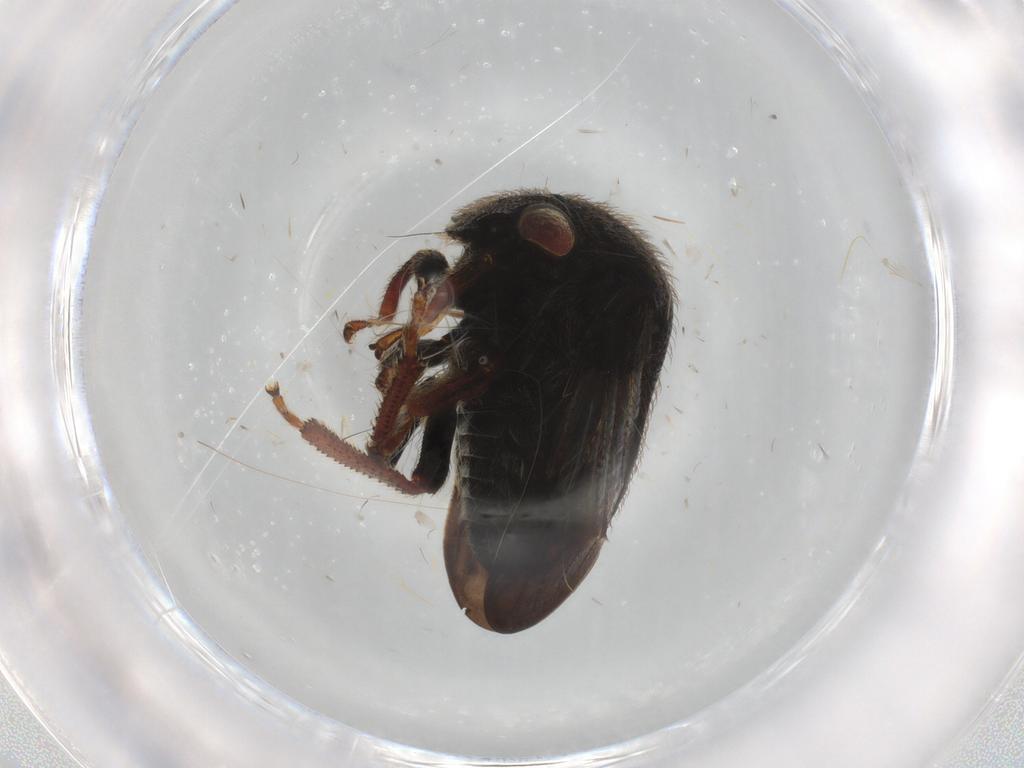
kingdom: Animalia
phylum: Arthropoda
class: Insecta
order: Hemiptera
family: Membracidae
